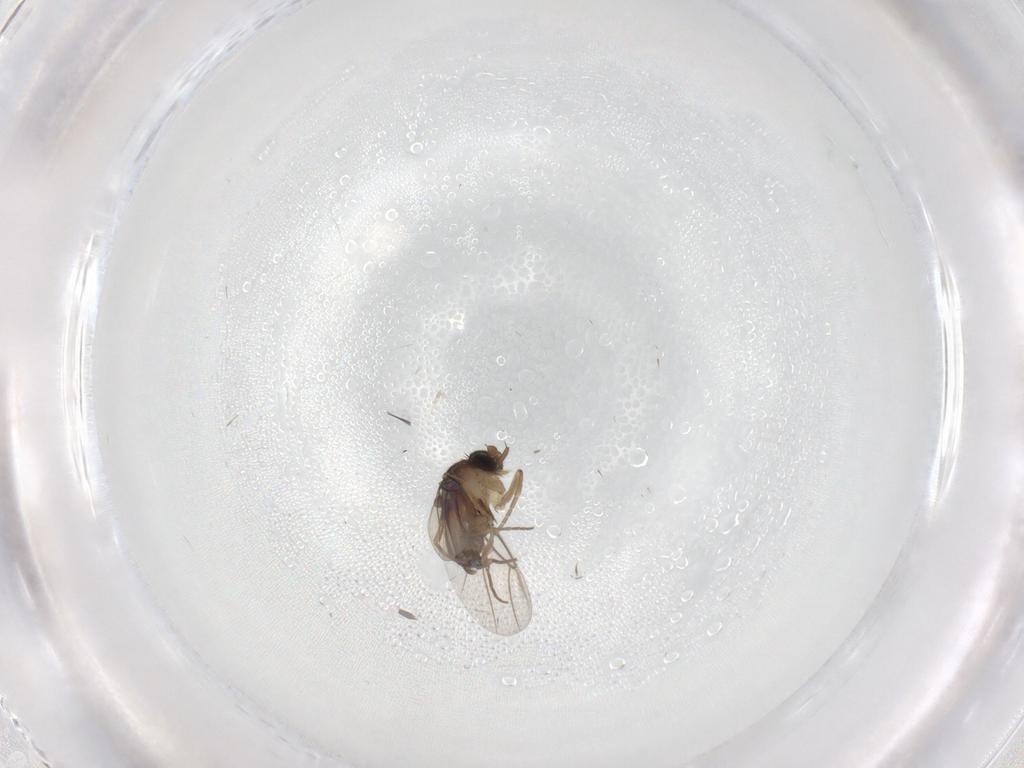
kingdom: Animalia
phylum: Arthropoda
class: Insecta
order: Diptera
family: Phoridae
